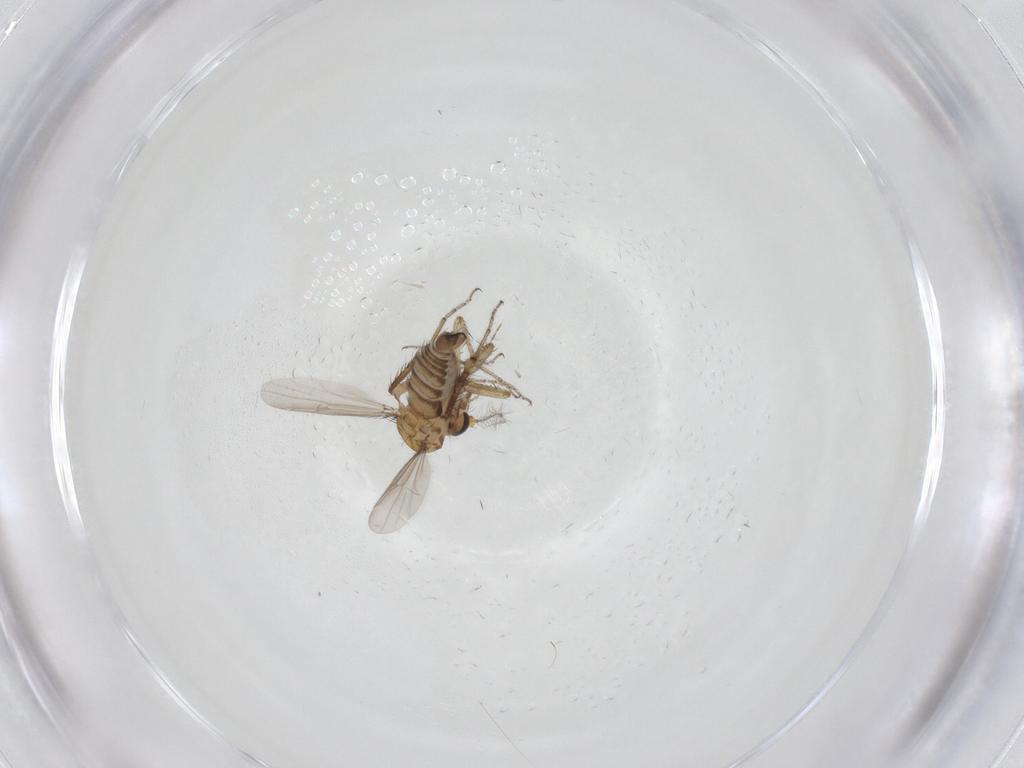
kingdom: Animalia
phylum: Arthropoda
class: Insecta
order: Diptera
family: Ceratopogonidae
